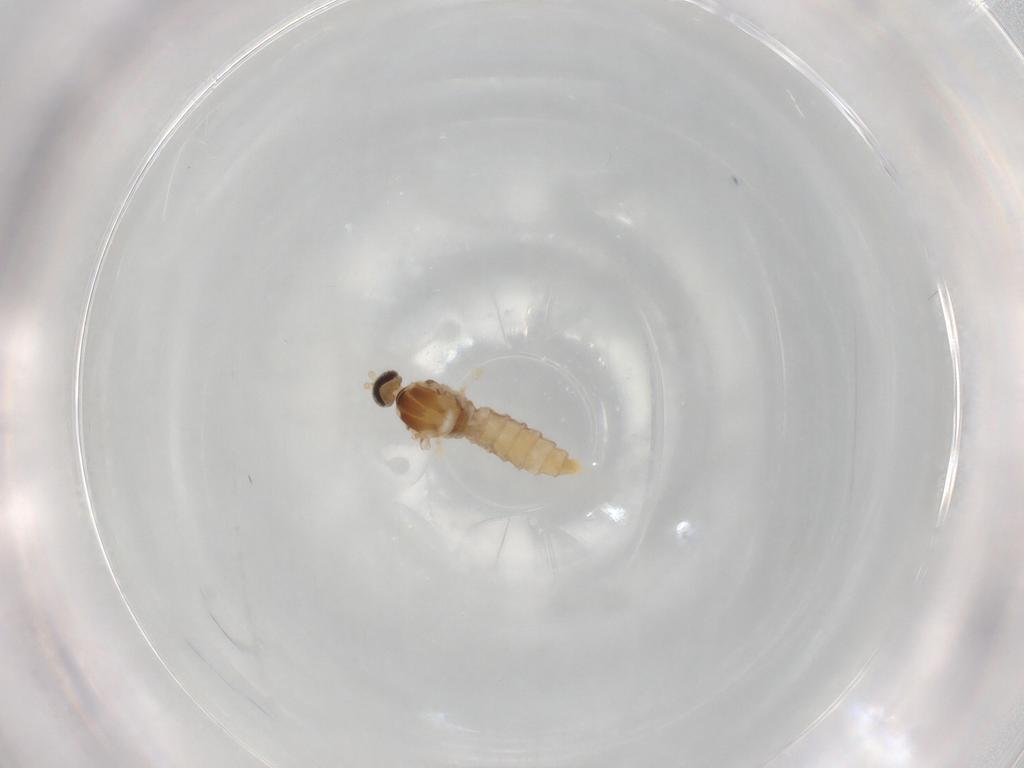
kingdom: Animalia
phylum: Arthropoda
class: Insecta
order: Diptera
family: Cecidomyiidae
